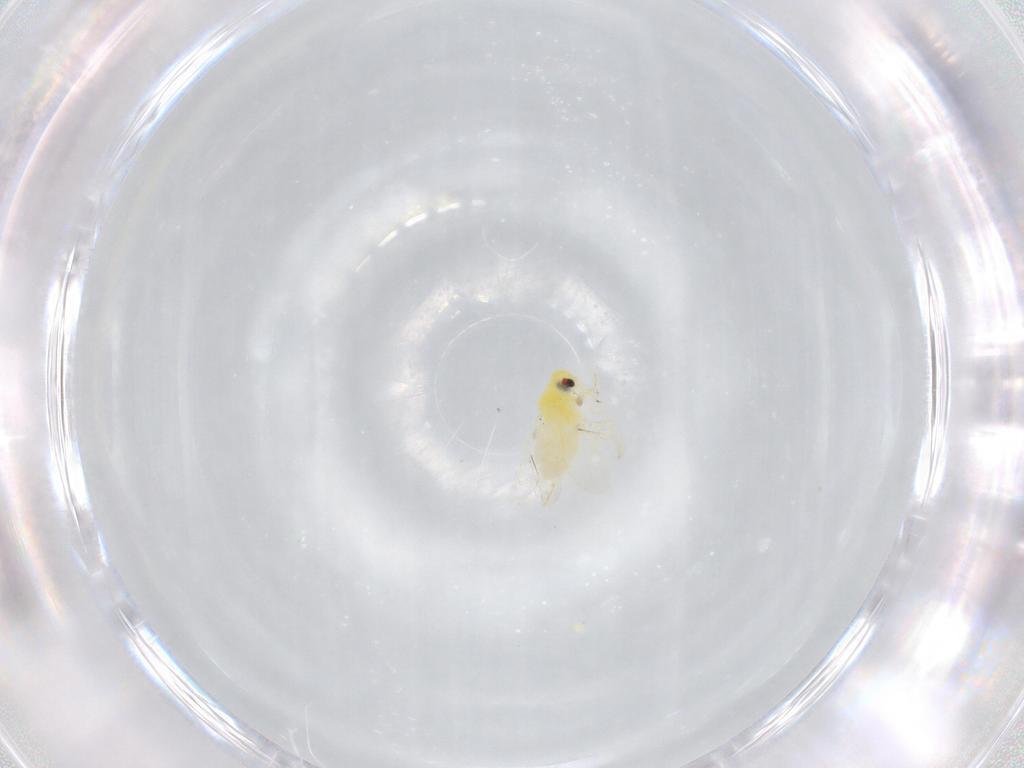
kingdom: Animalia
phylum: Arthropoda
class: Insecta
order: Hemiptera
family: Aleyrodidae
